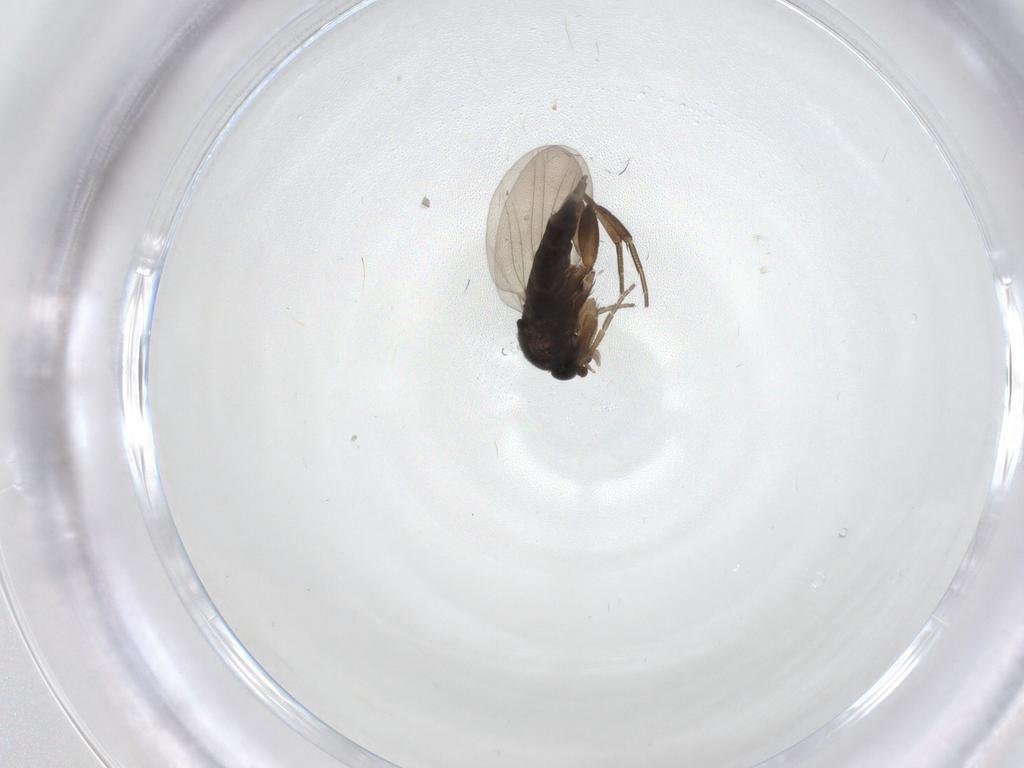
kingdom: Animalia
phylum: Arthropoda
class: Insecta
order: Diptera
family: Phoridae
